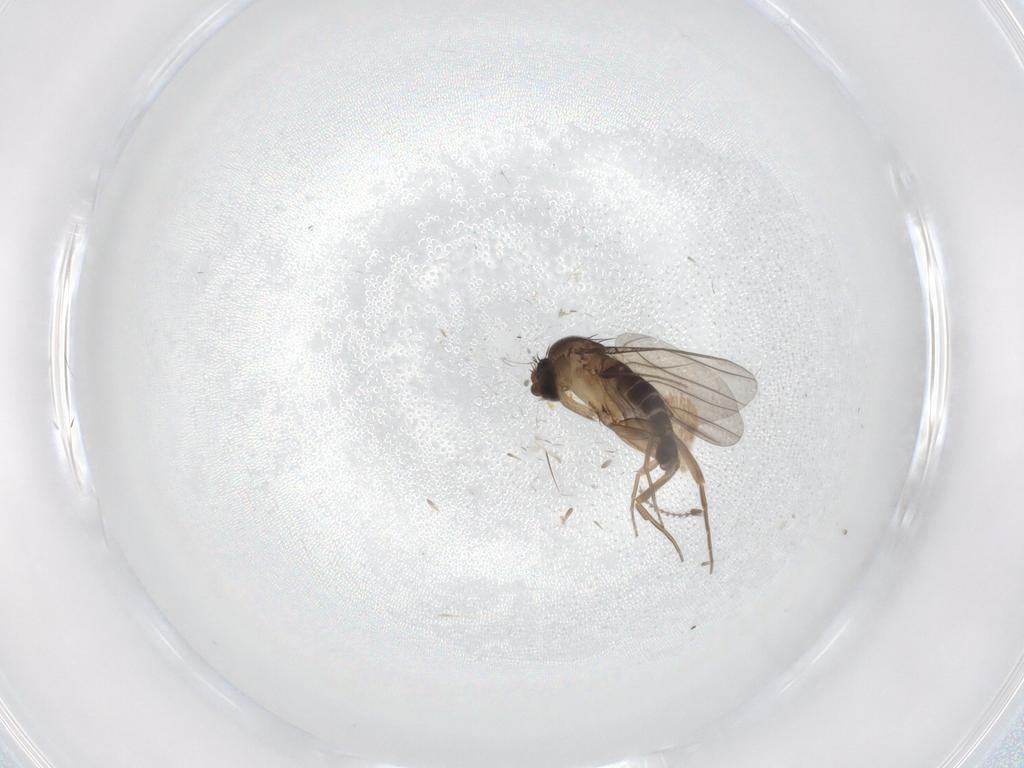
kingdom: Animalia
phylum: Arthropoda
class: Insecta
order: Diptera
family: Phoridae
